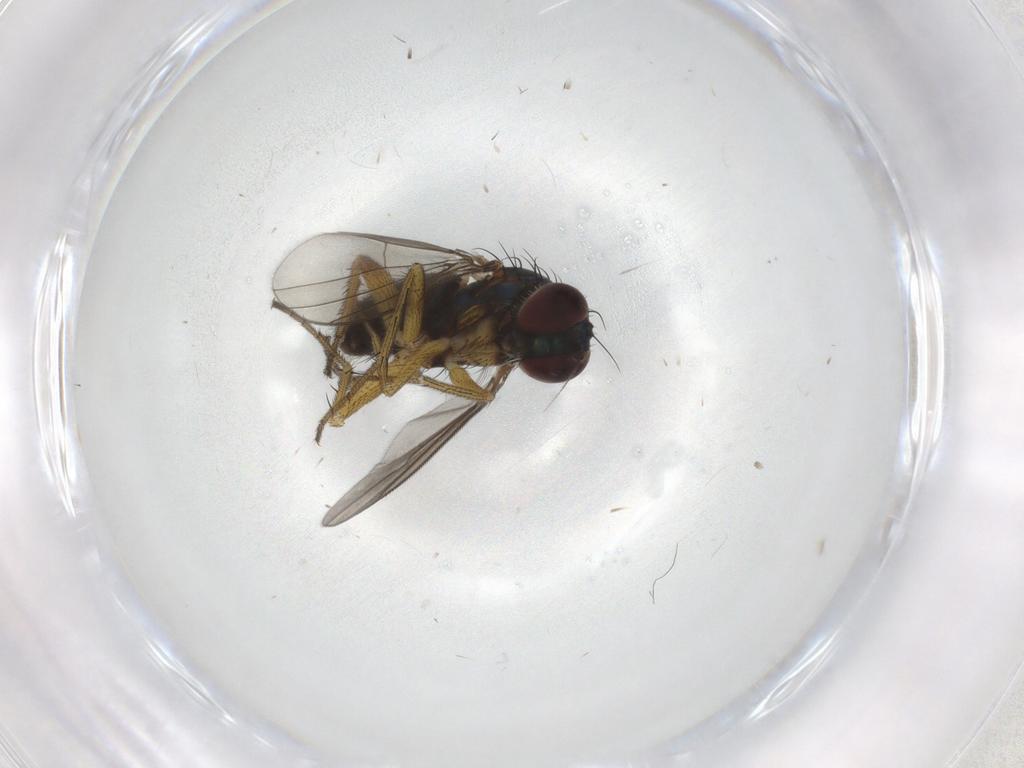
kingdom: Animalia
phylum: Arthropoda
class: Insecta
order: Diptera
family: Dolichopodidae
